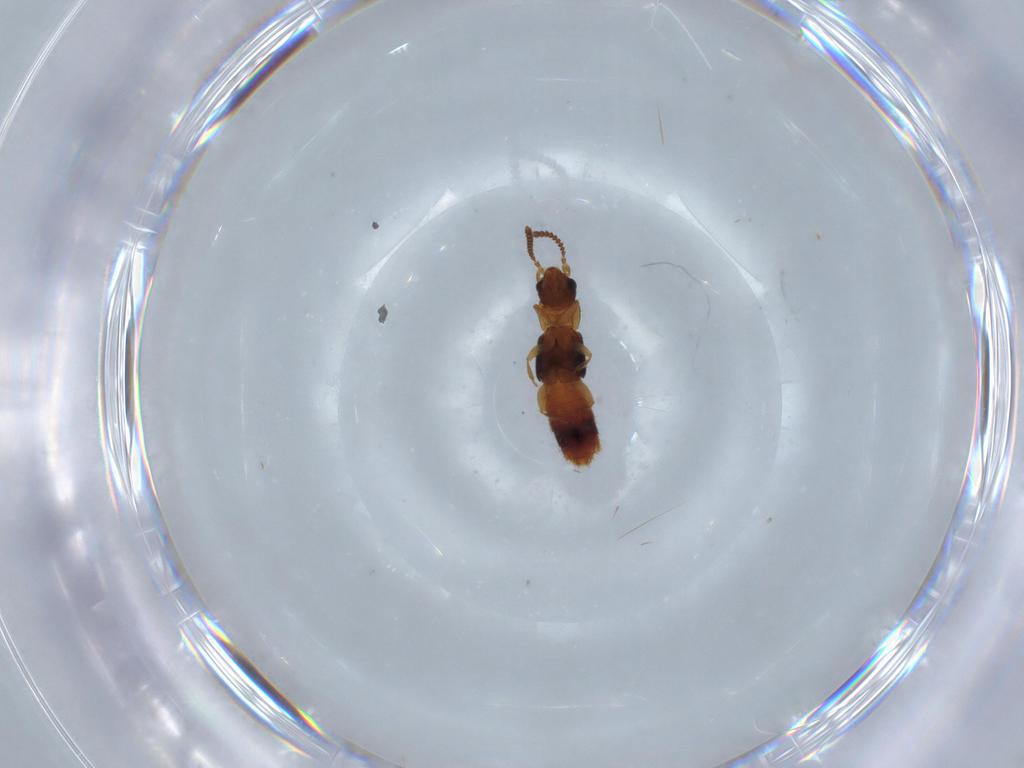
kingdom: Animalia
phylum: Arthropoda
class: Insecta
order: Coleoptera
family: Staphylinidae
